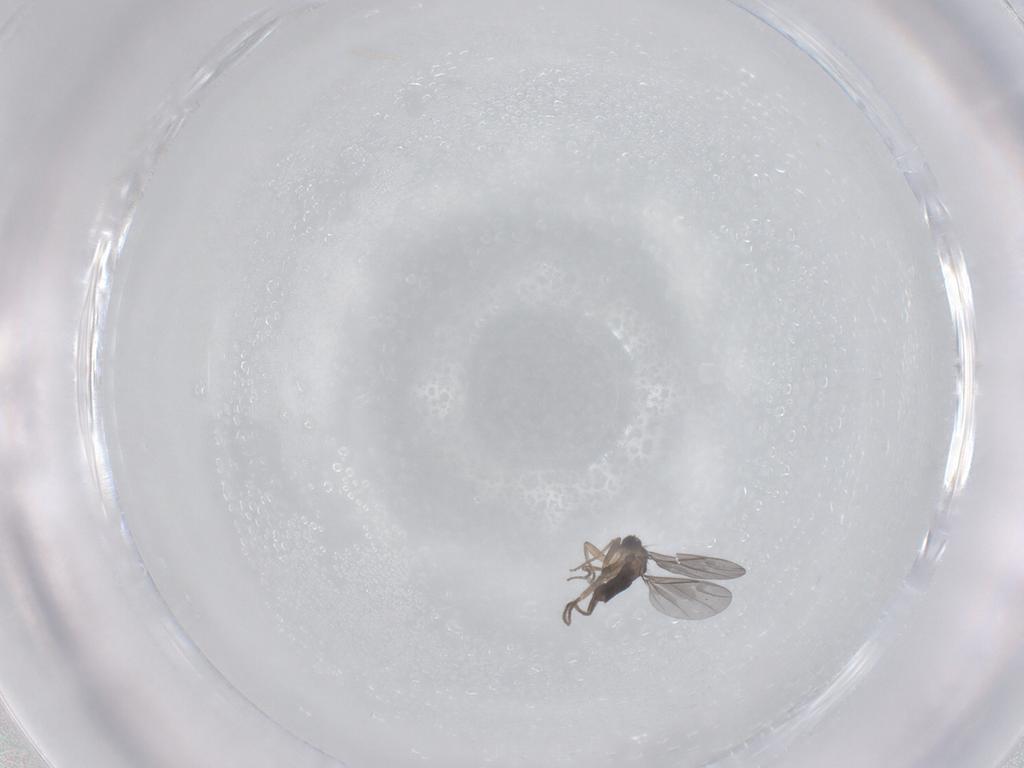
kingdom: Animalia
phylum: Arthropoda
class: Insecta
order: Diptera
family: Phoridae
